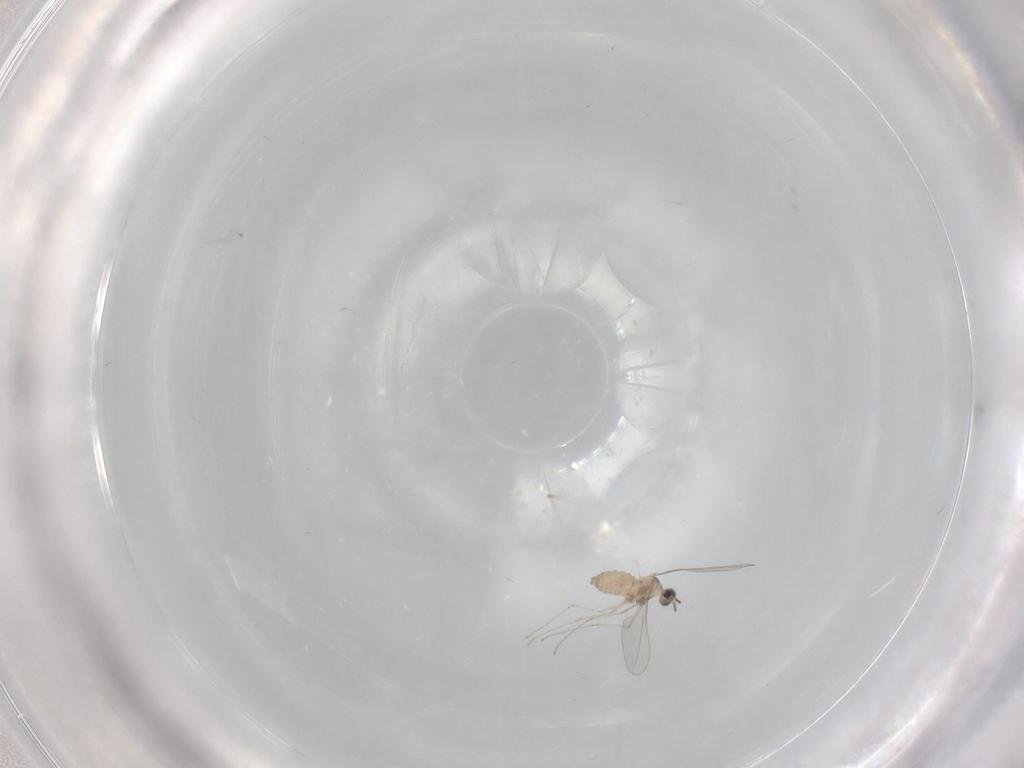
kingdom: Animalia
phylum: Arthropoda
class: Insecta
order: Diptera
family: Cecidomyiidae
